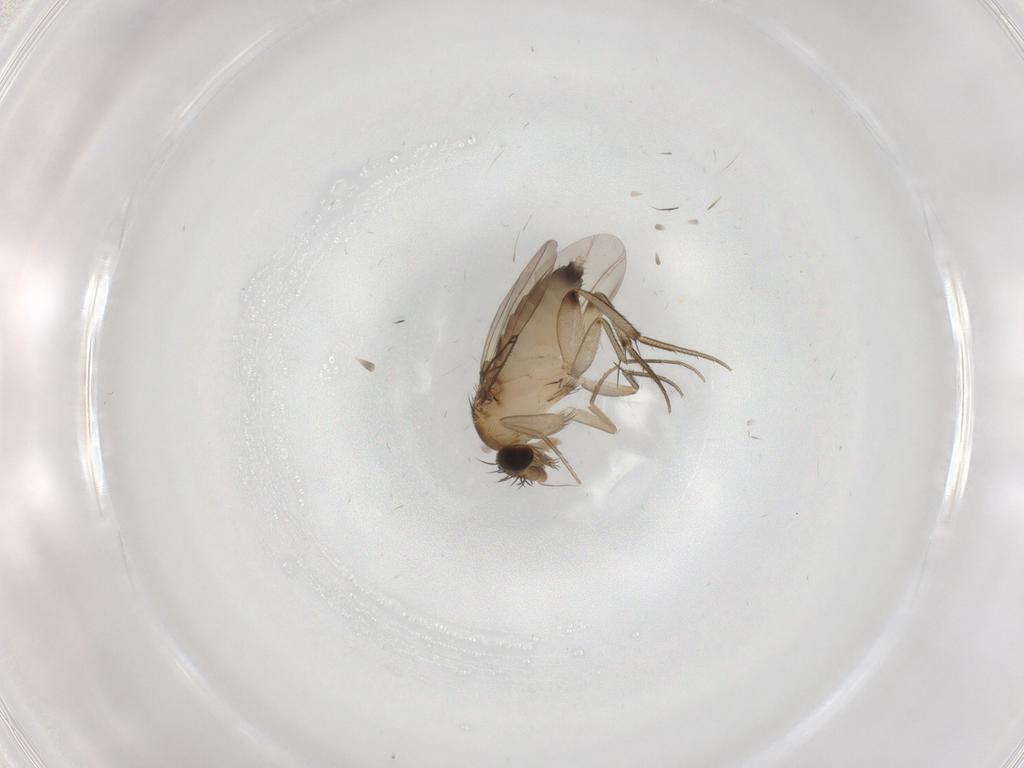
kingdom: Animalia
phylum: Arthropoda
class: Insecta
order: Diptera
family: Phoridae
